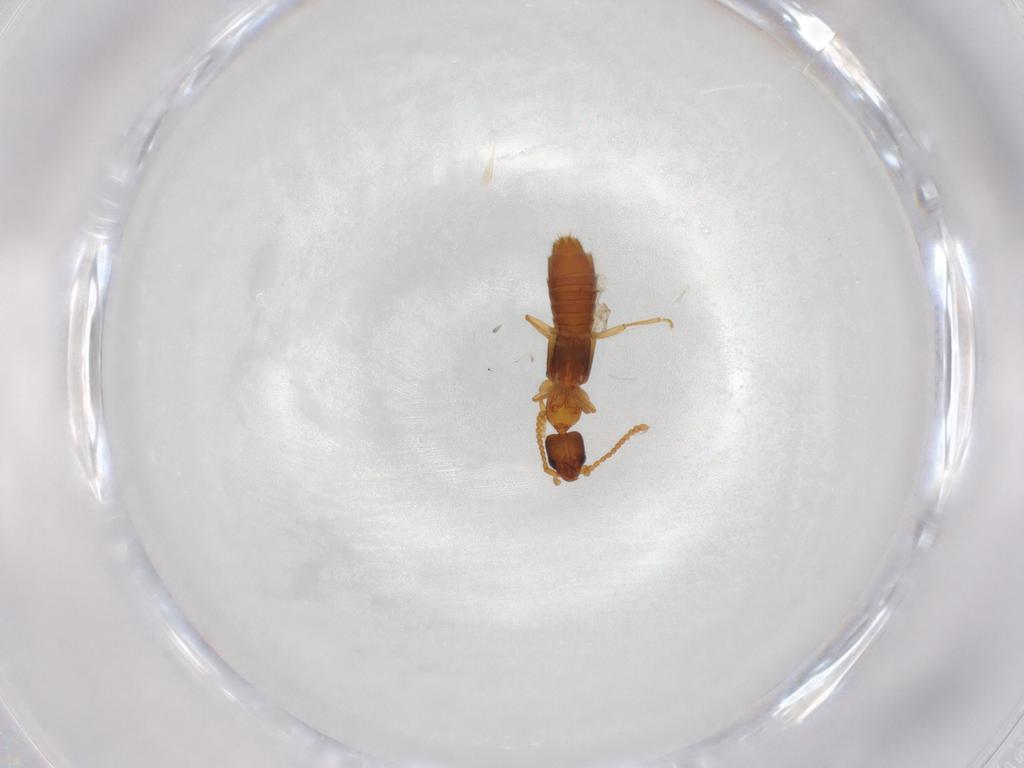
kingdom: Animalia
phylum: Arthropoda
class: Insecta
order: Coleoptera
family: Staphylinidae
